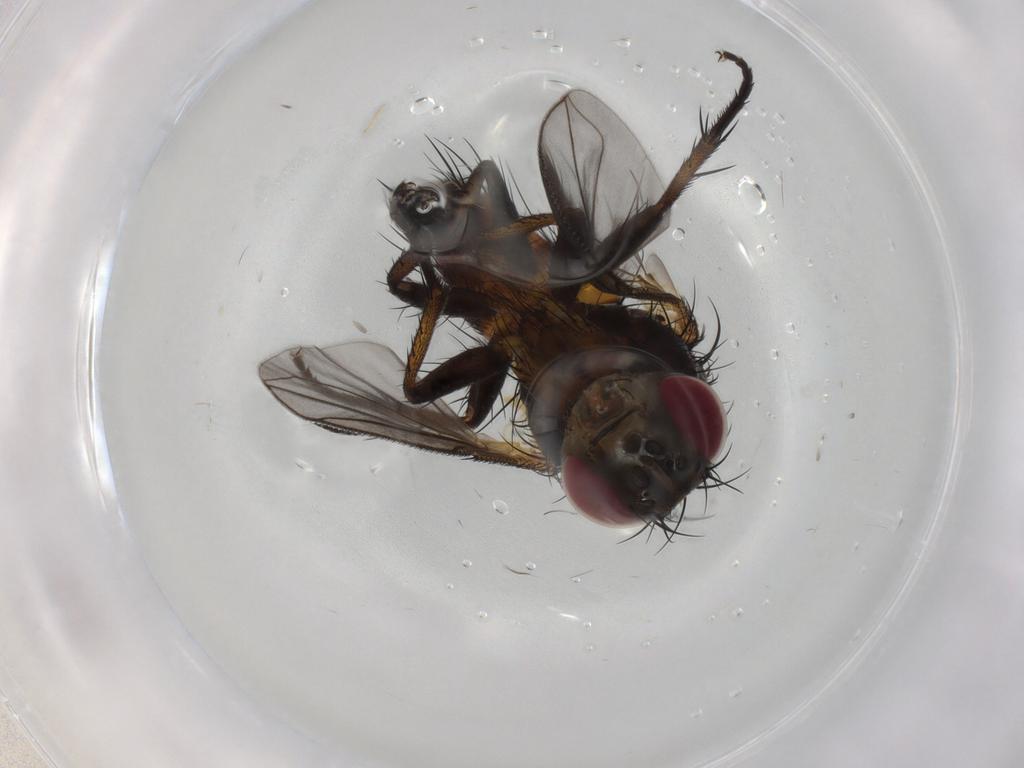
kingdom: Animalia
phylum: Arthropoda
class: Insecta
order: Diptera
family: Tachinidae
